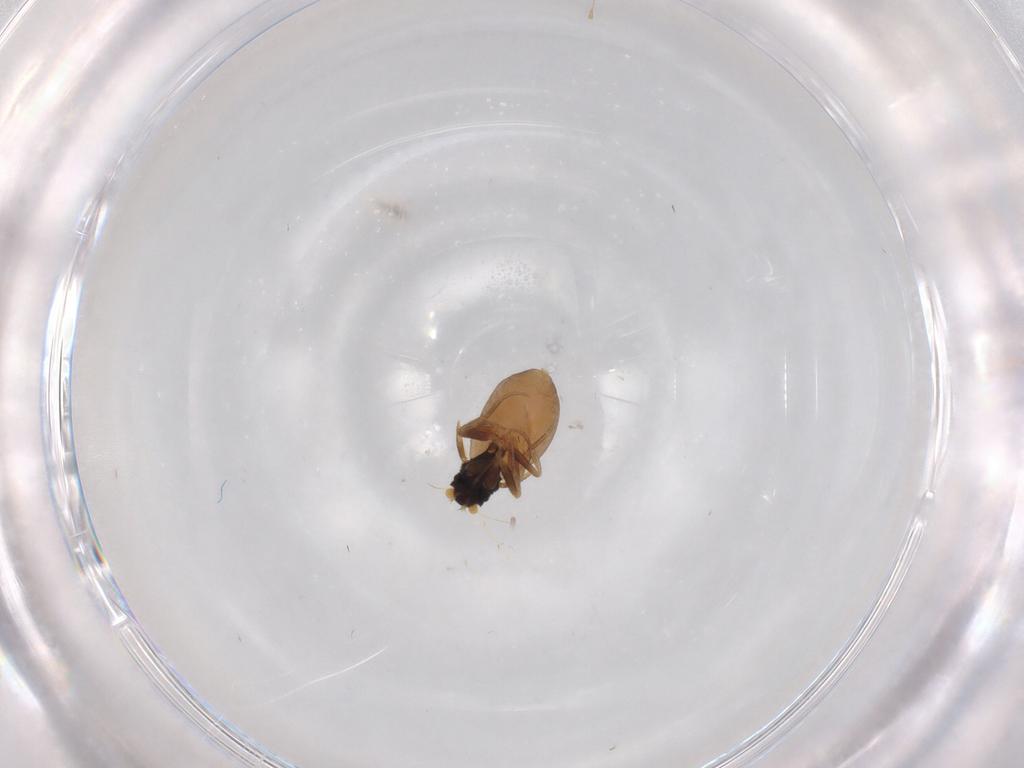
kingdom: Animalia
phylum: Arthropoda
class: Insecta
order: Diptera
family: Phoridae
